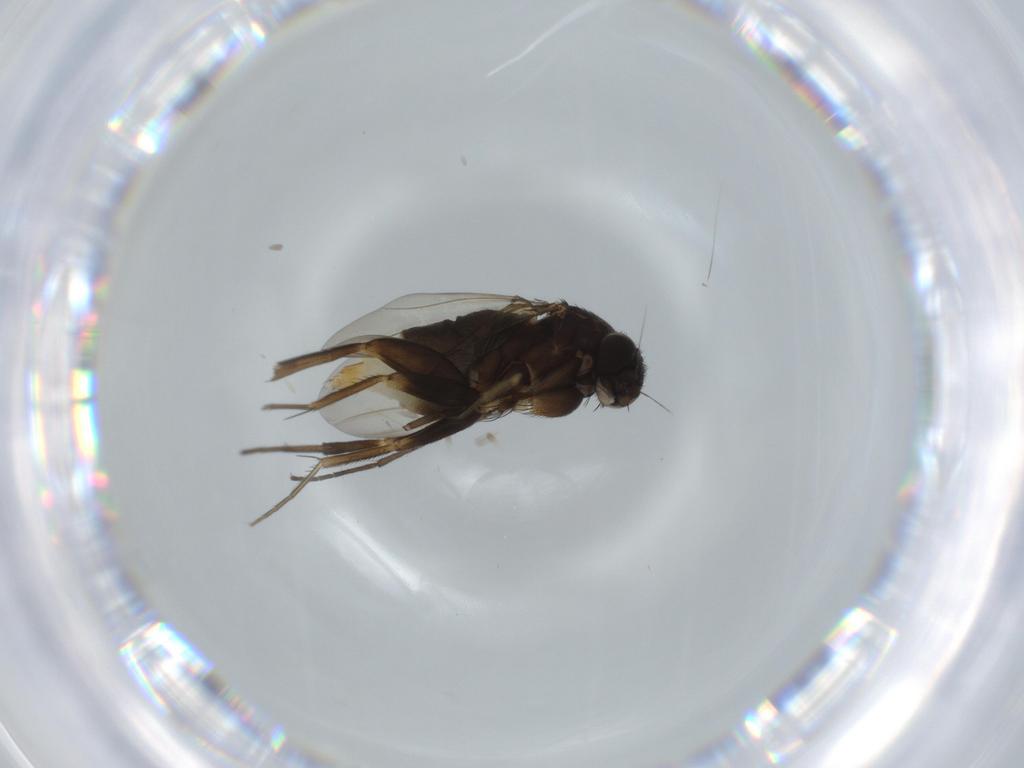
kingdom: Animalia
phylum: Arthropoda
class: Insecta
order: Diptera
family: Phoridae
